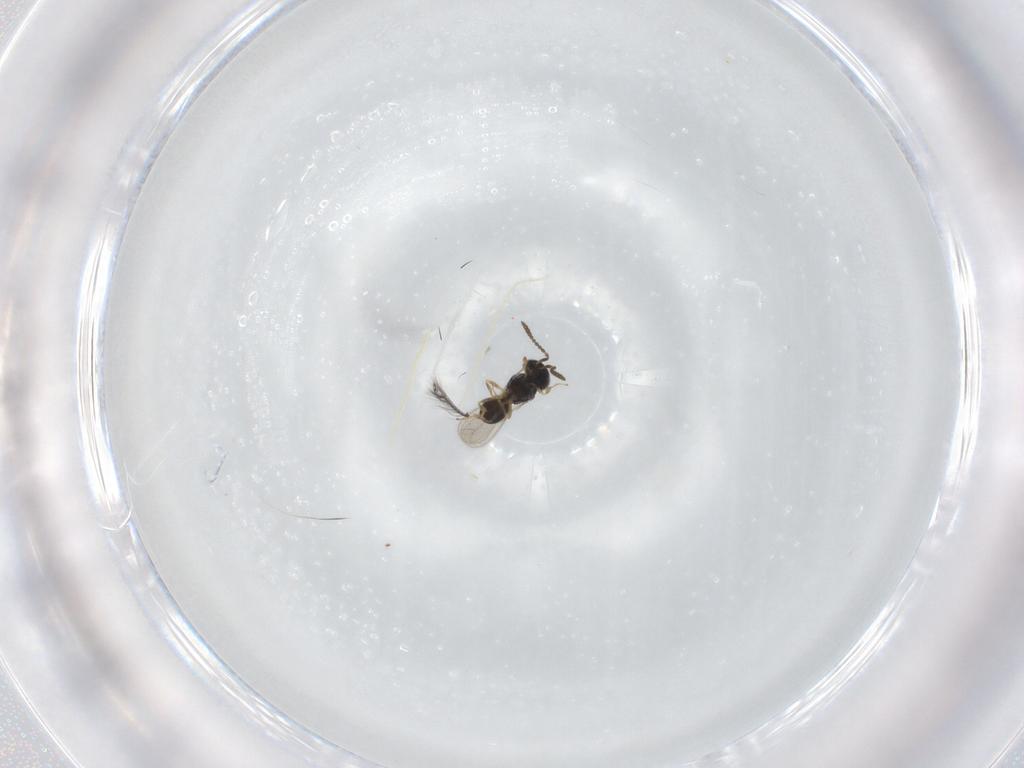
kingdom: Animalia
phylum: Arthropoda
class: Insecta
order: Hymenoptera
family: Scelionidae
